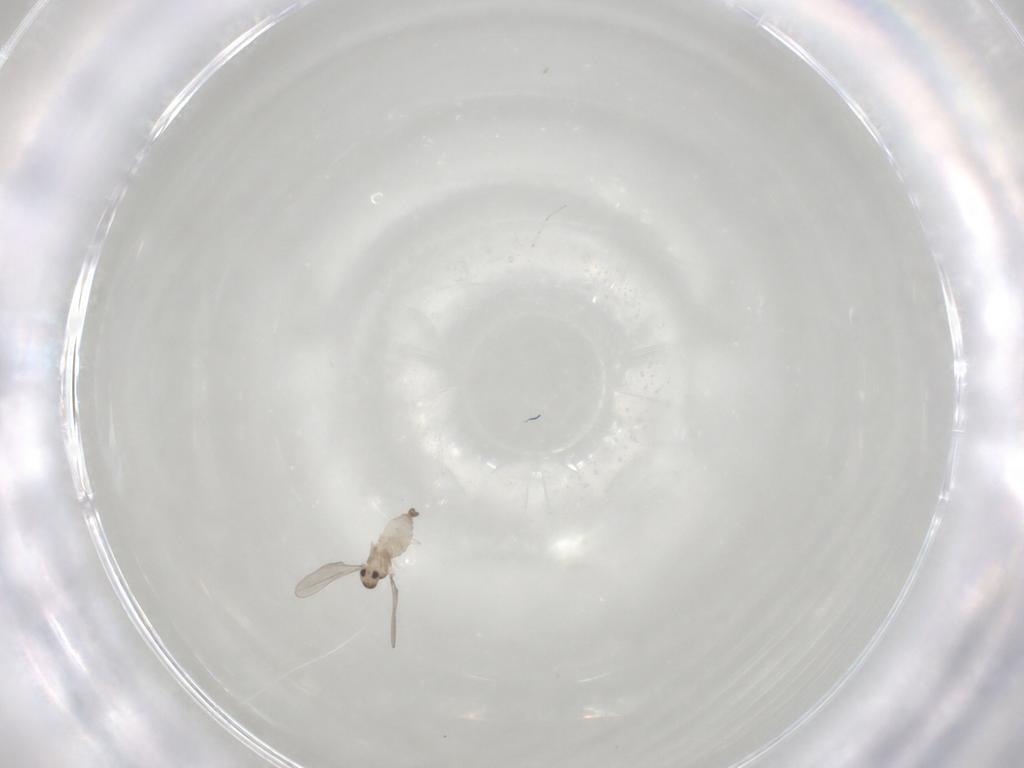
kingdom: Animalia
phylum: Arthropoda
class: Insecta
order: Diptera
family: Cecidomyiidae
